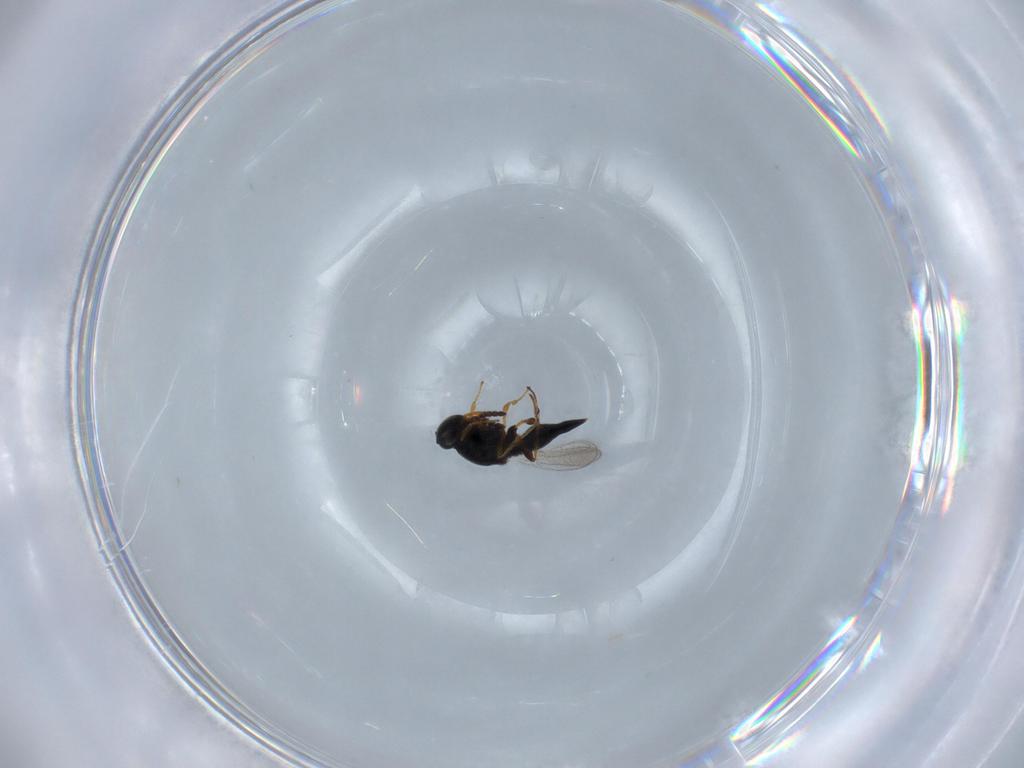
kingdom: Animalia
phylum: Arthropoda
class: Insecta
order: Hymenoptera
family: Platygastridae
